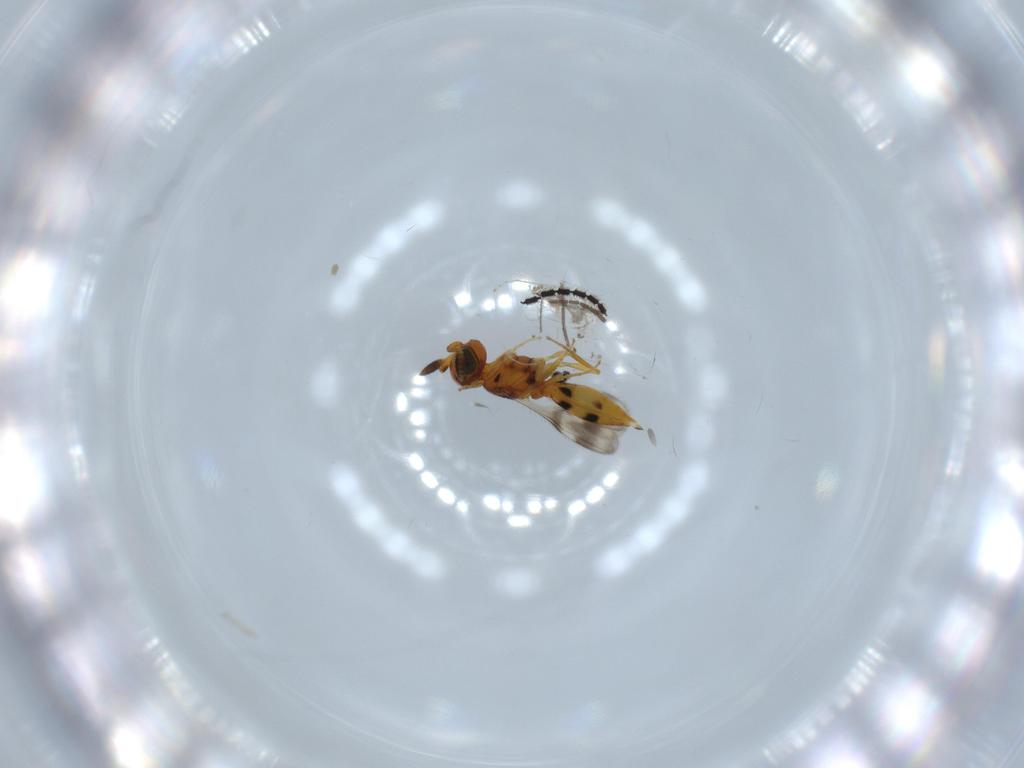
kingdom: Animalia
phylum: Arthropoda
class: Insecta
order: Hymenoptera
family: Scelionidae
